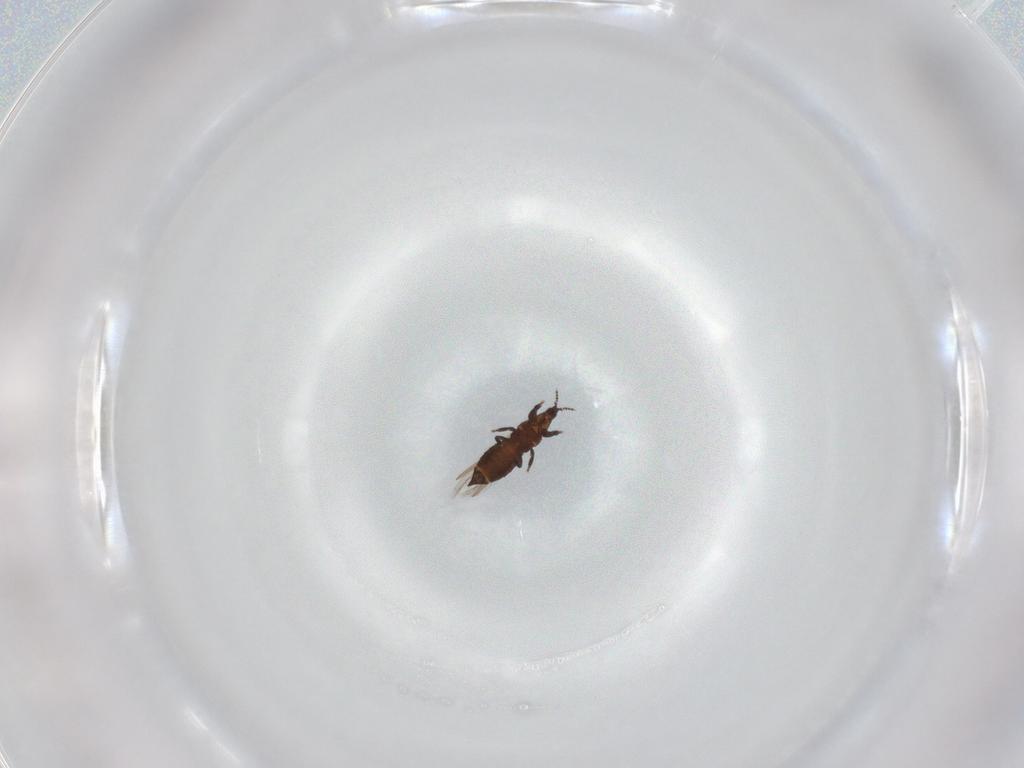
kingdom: Animalia
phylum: Arthropoda
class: Insecta
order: Thysanoptera
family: Thripidae
